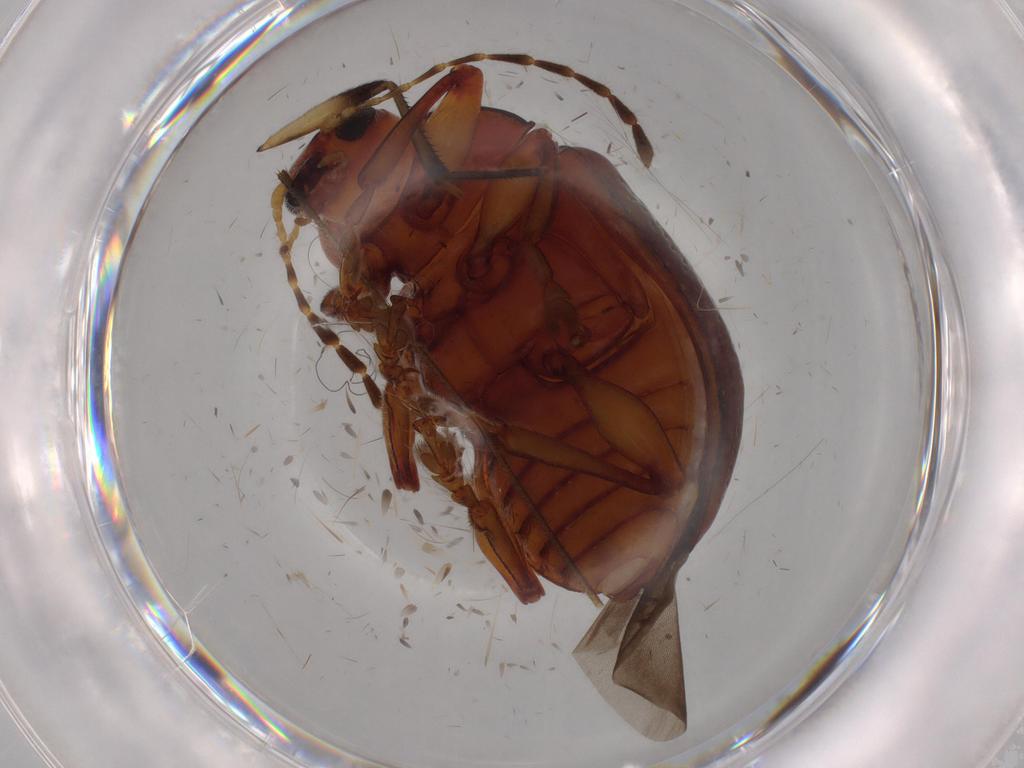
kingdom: Animalia
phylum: Arthropoda
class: Insecta
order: Coleoptera
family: Chrysomelidae
